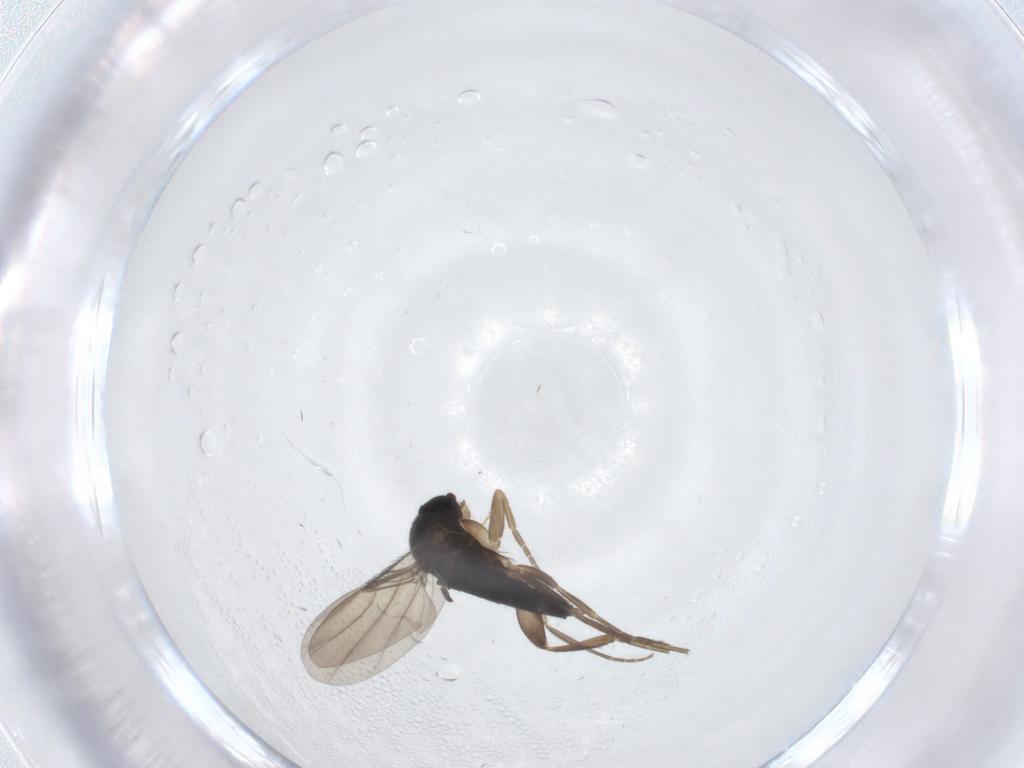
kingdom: Animalia
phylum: Arthropoda
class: Insecta
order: Diptera
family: Phoridae
